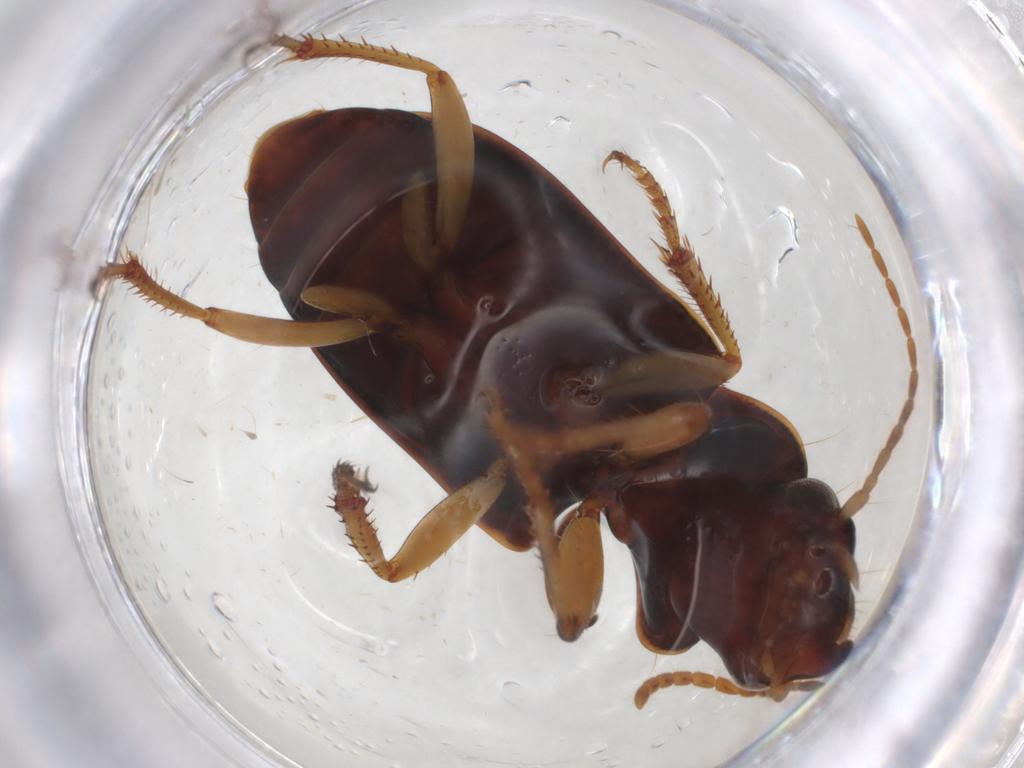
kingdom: Animalia
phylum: Arthropoda
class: Insecta
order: Coleoptera
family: Carabidae
